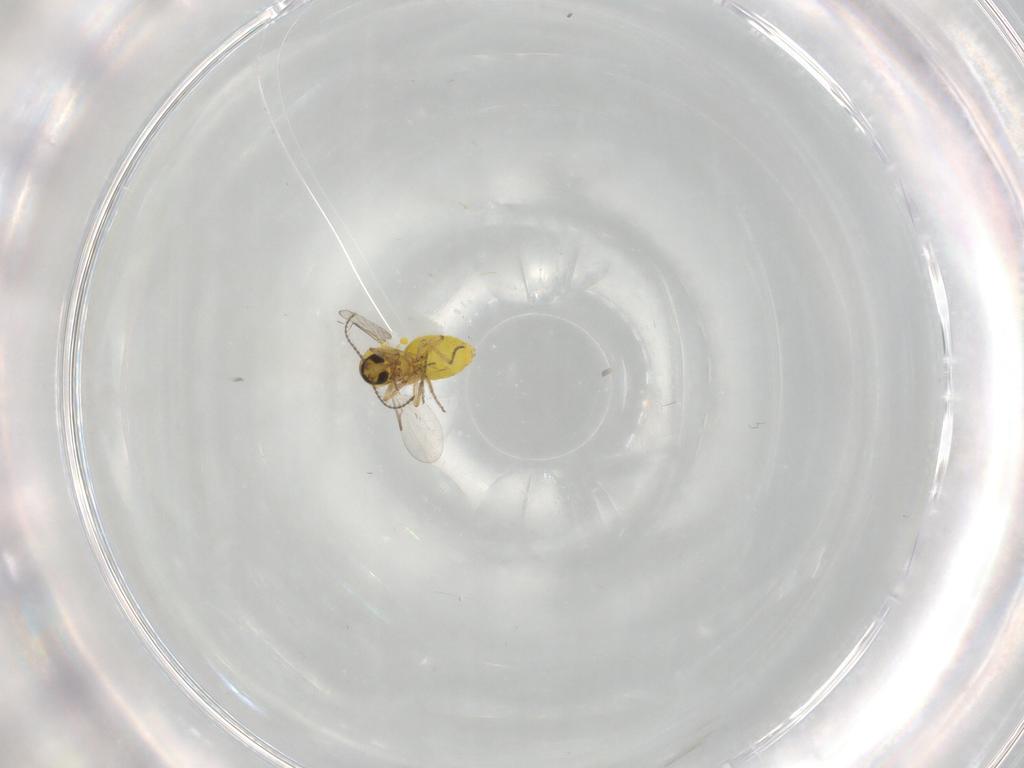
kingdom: Animalia
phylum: Arthropoda
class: Insecta
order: Diptera
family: Ceratopogonidae
